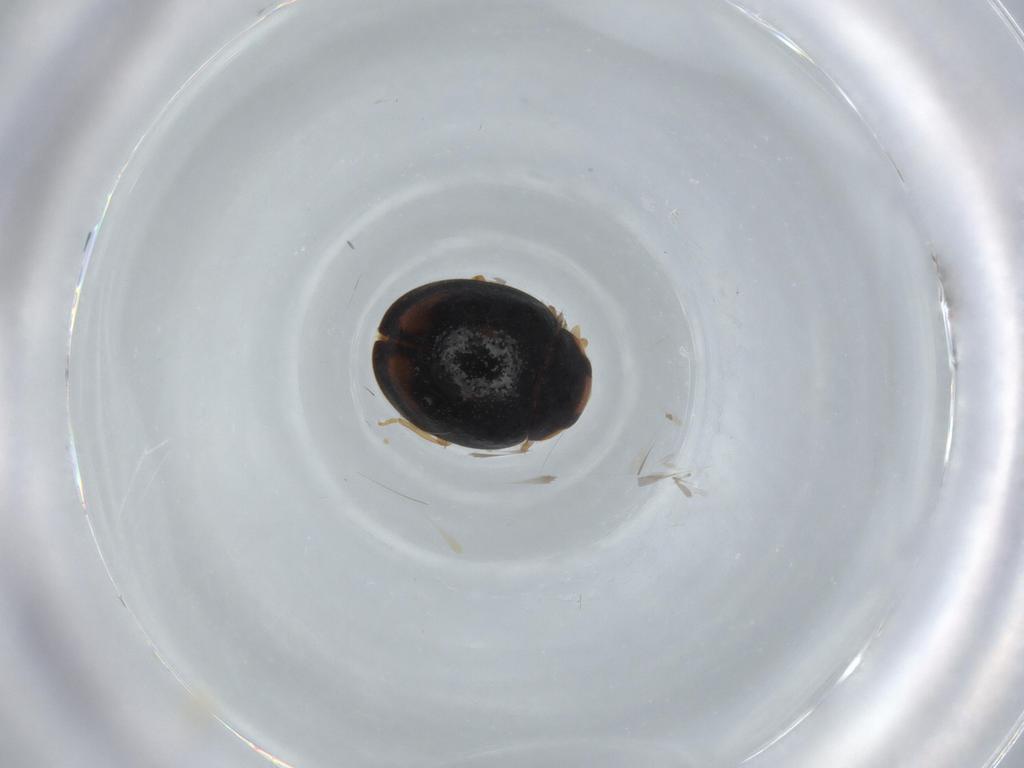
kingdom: Animalia
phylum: Arthropoda
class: Insecta
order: Coleoptera
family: Coccinellidae
